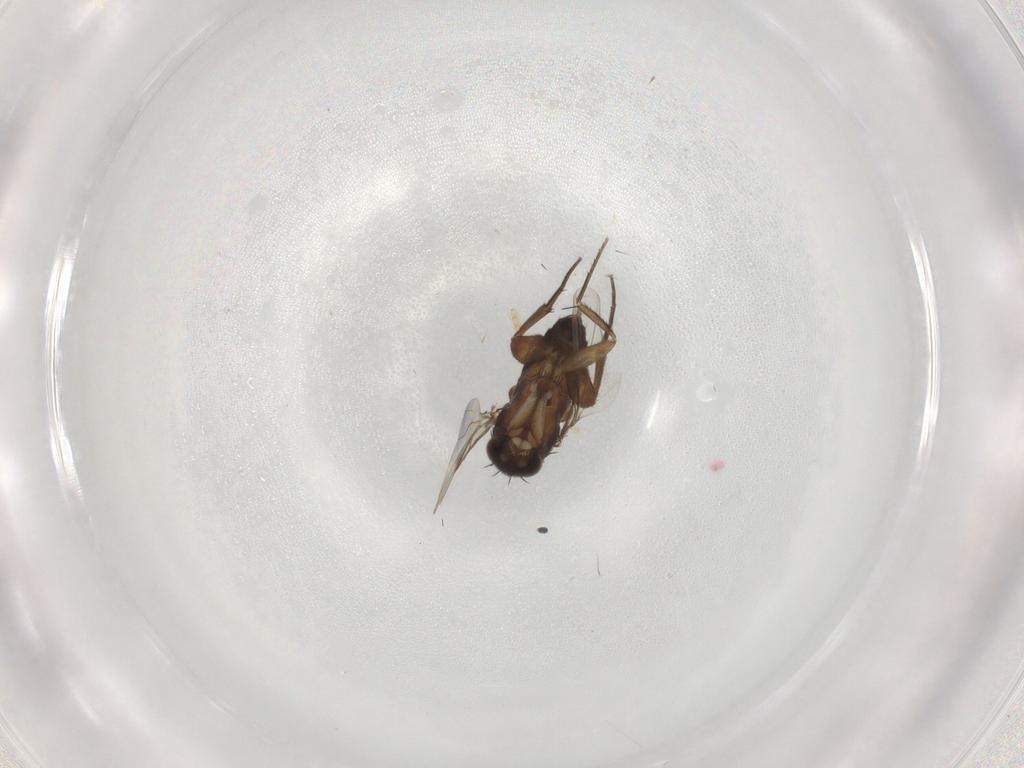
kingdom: Animalia
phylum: Arthropoda
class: Insecta
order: Diptera
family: Phoridae
